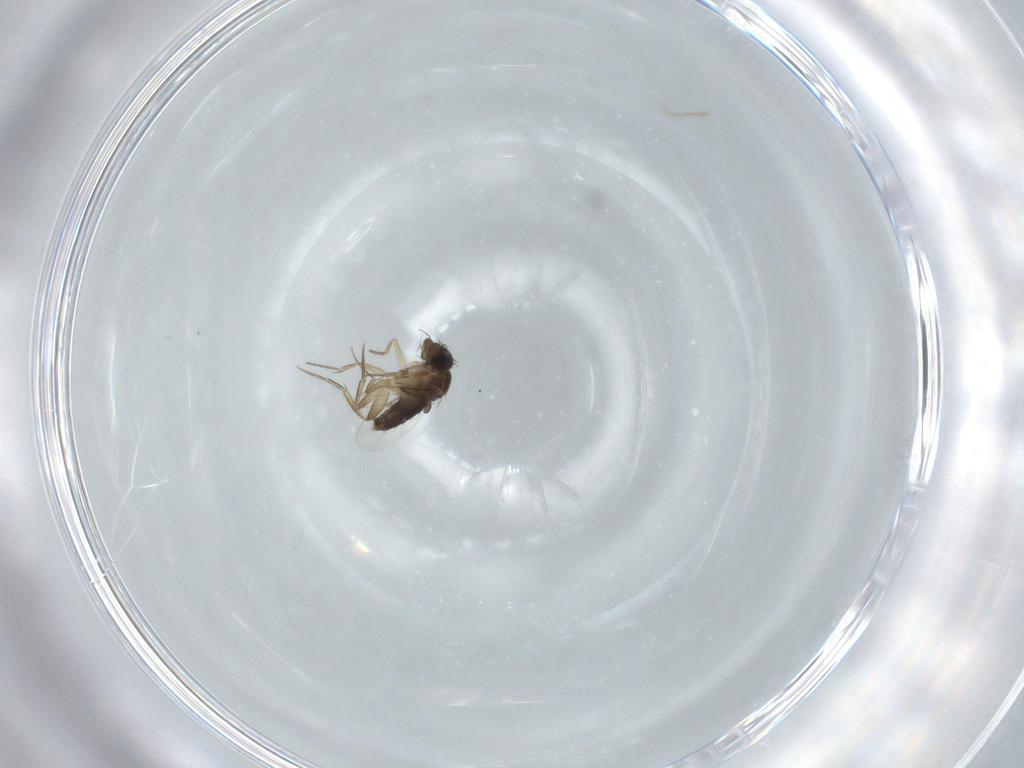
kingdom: Animalia
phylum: Arthropoda
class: Insecta
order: Diptera
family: Phoridae
